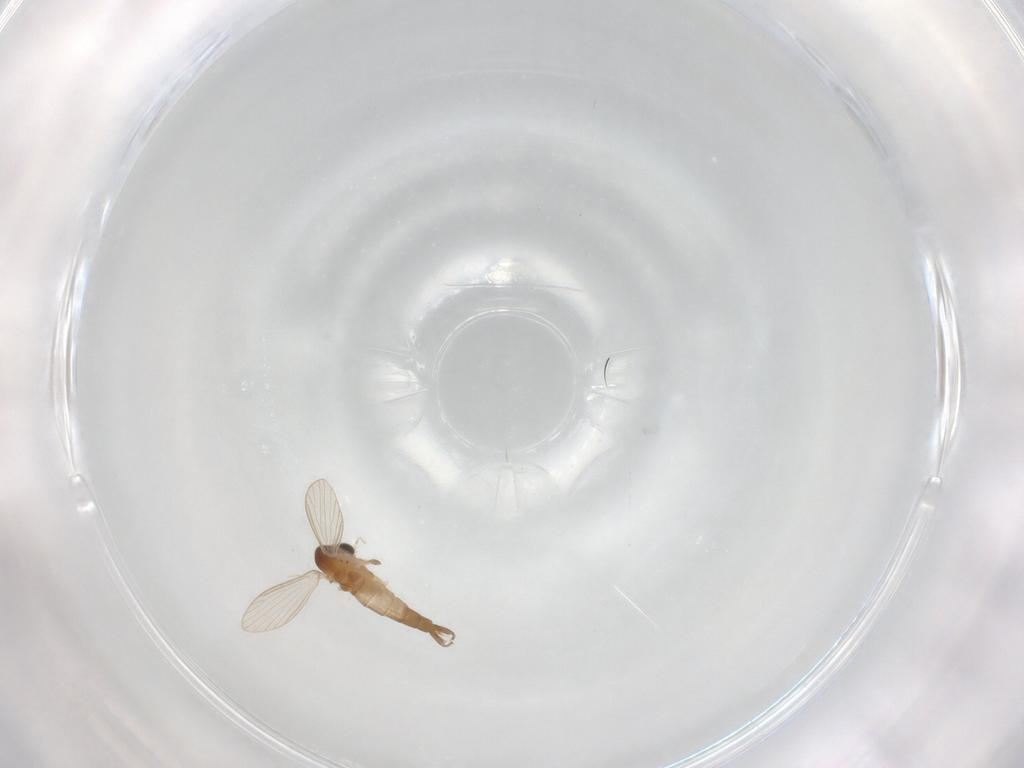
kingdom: Animalia
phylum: Arthropoda
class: Insecta
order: Diptera
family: Psychodidae
